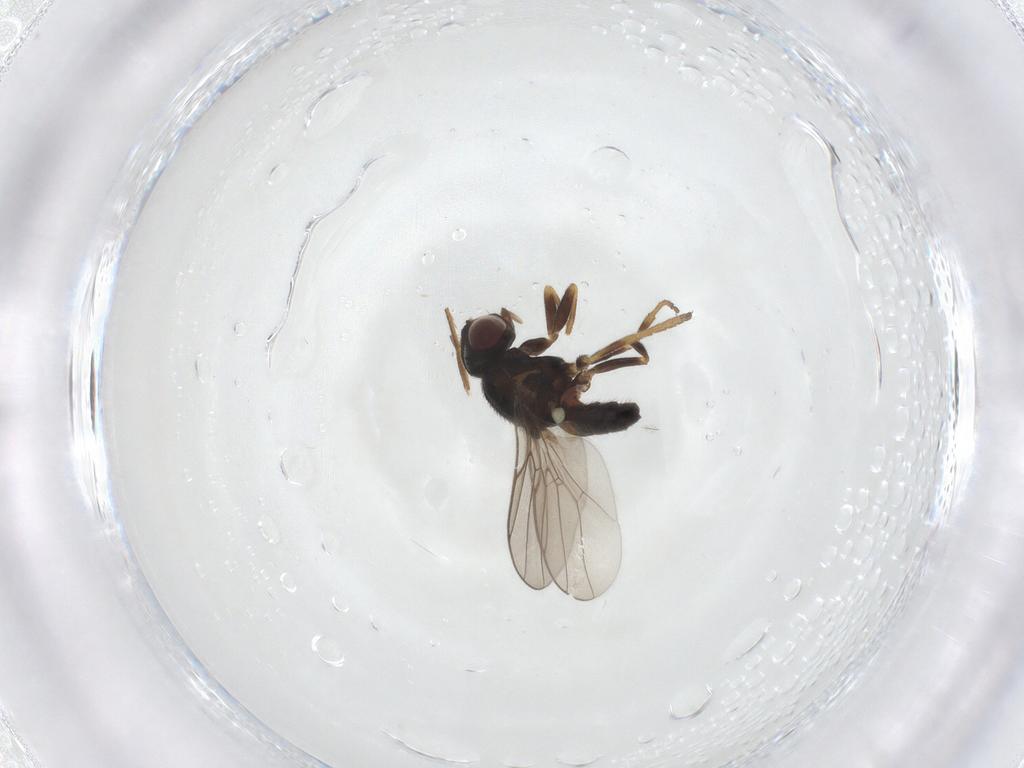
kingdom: Animalia
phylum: Arthropoda
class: Insecta
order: Diptera
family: Chloropidae
